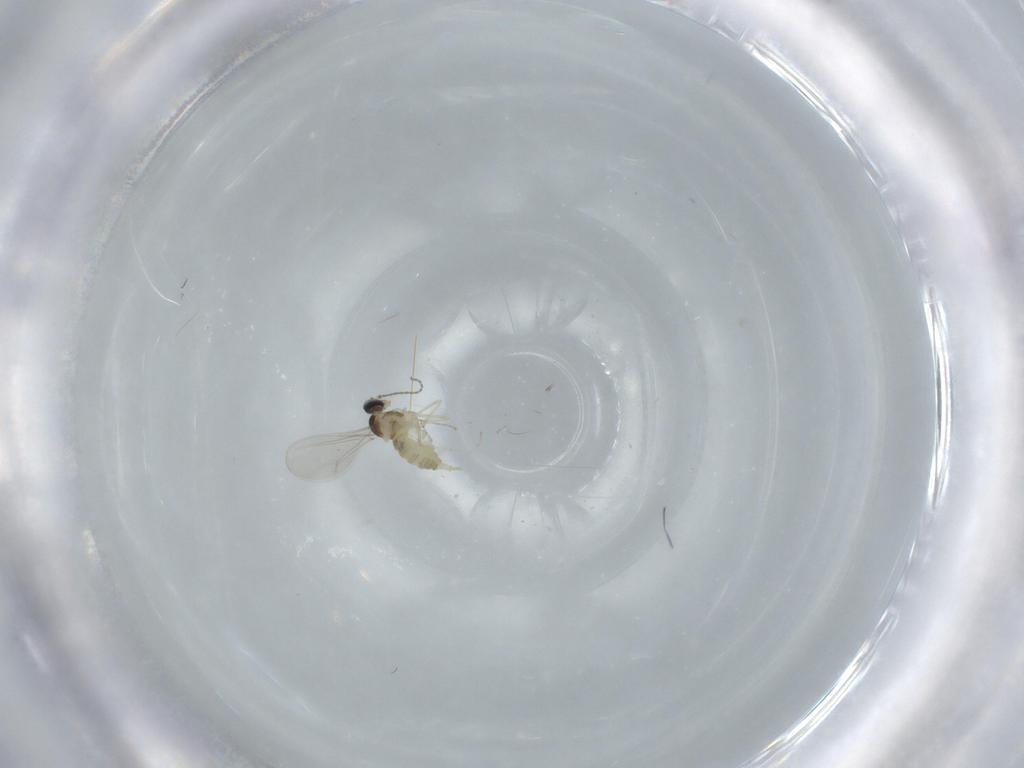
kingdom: Animalia
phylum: Arthropoda
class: Insecta
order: Diptera
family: Cecidomyiidae
